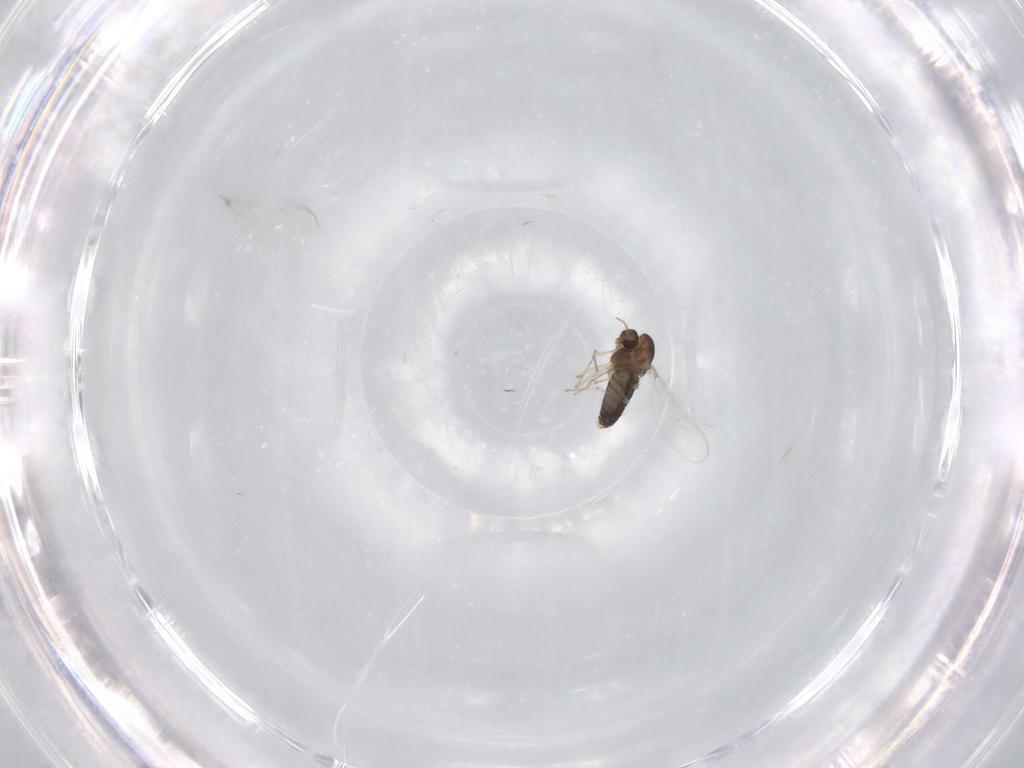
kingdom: Animalia
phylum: Arthropoda
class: Insecta
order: Diptera
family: Chironomidae
